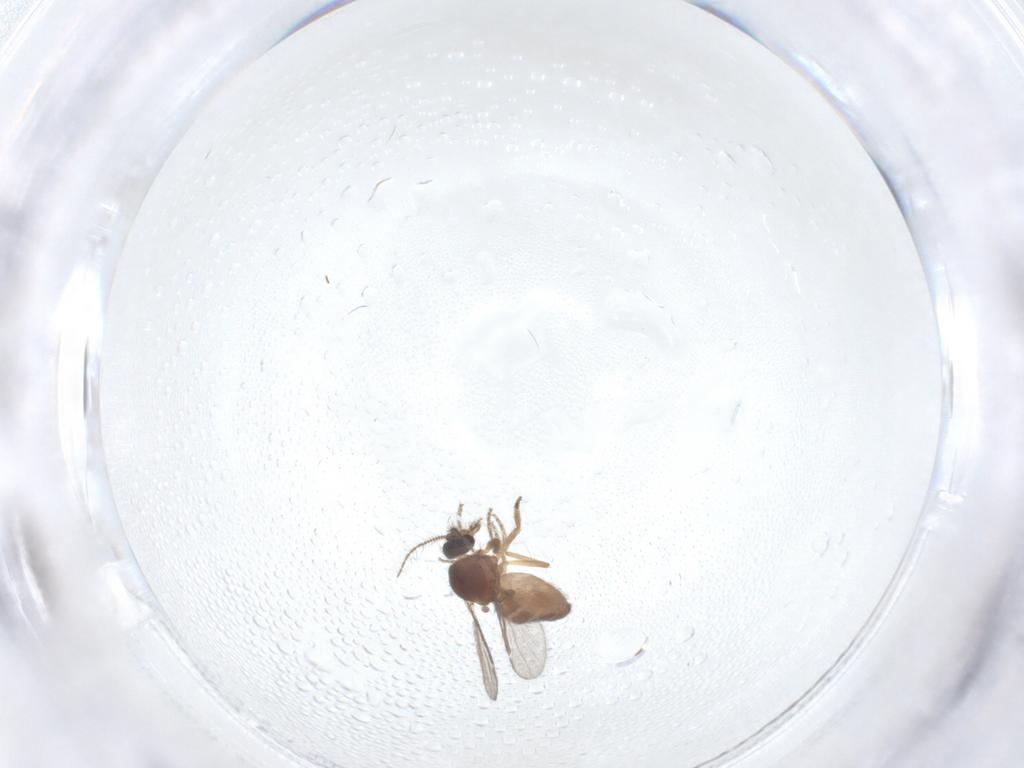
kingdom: Animalia
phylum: Arthropoda
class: Insecta
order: Diptera
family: Ceratopogonidae
